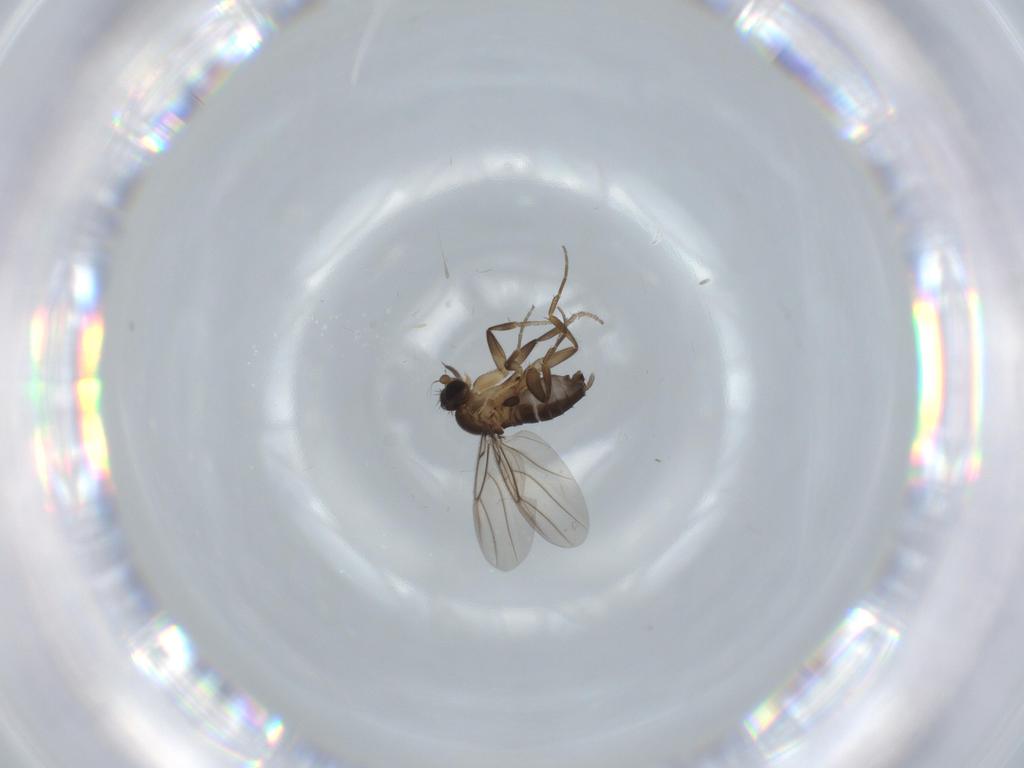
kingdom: Animalia
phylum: Arthropoda
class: Insecta
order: Diptera
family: Phoridae
